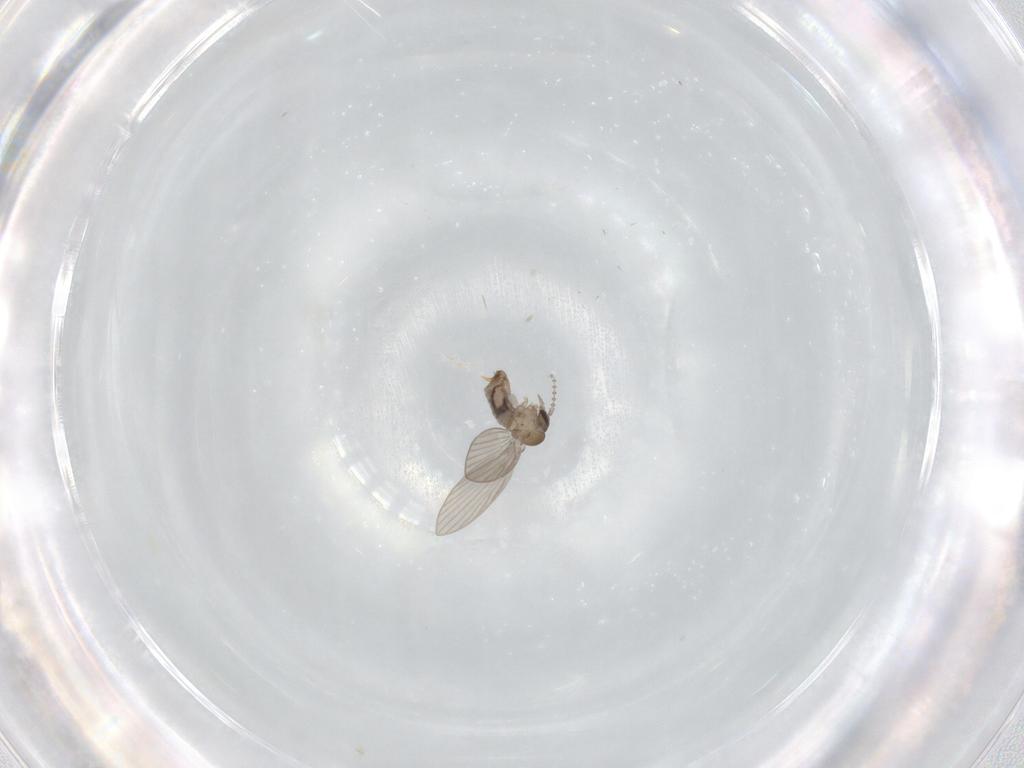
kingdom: Animalia
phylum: Arthropoda
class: Insecta
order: Diptera
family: Psychodidae
